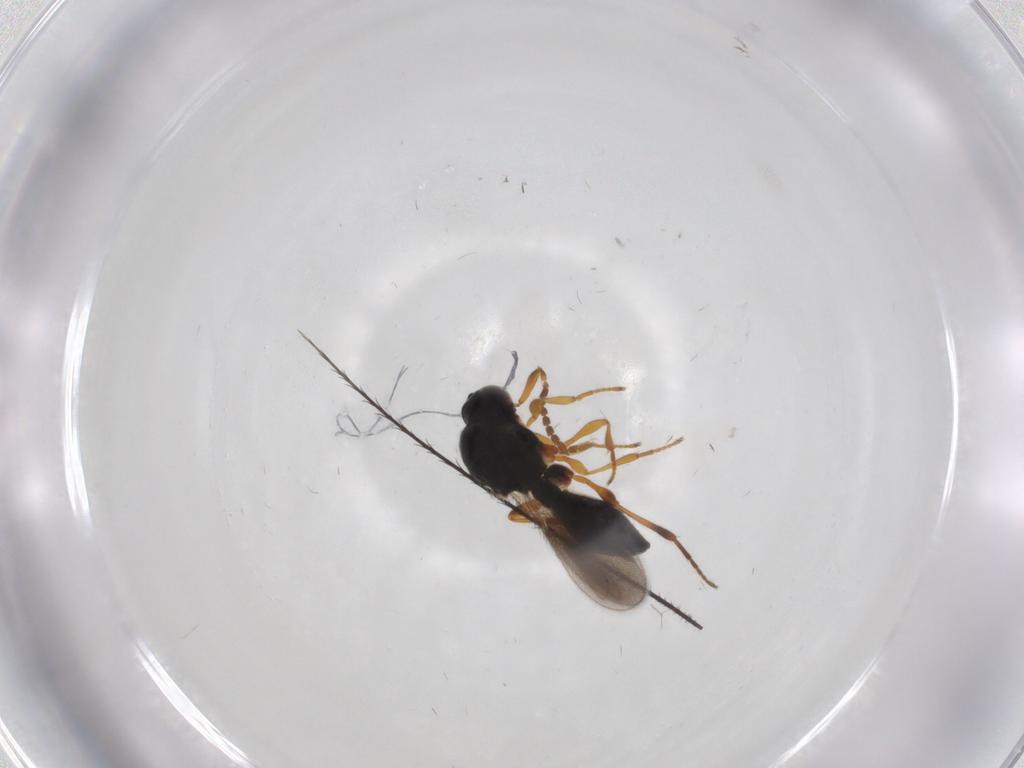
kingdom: Animalia
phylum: Arthropoda
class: Insecta
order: Hymenoptera
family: Platygastridae
